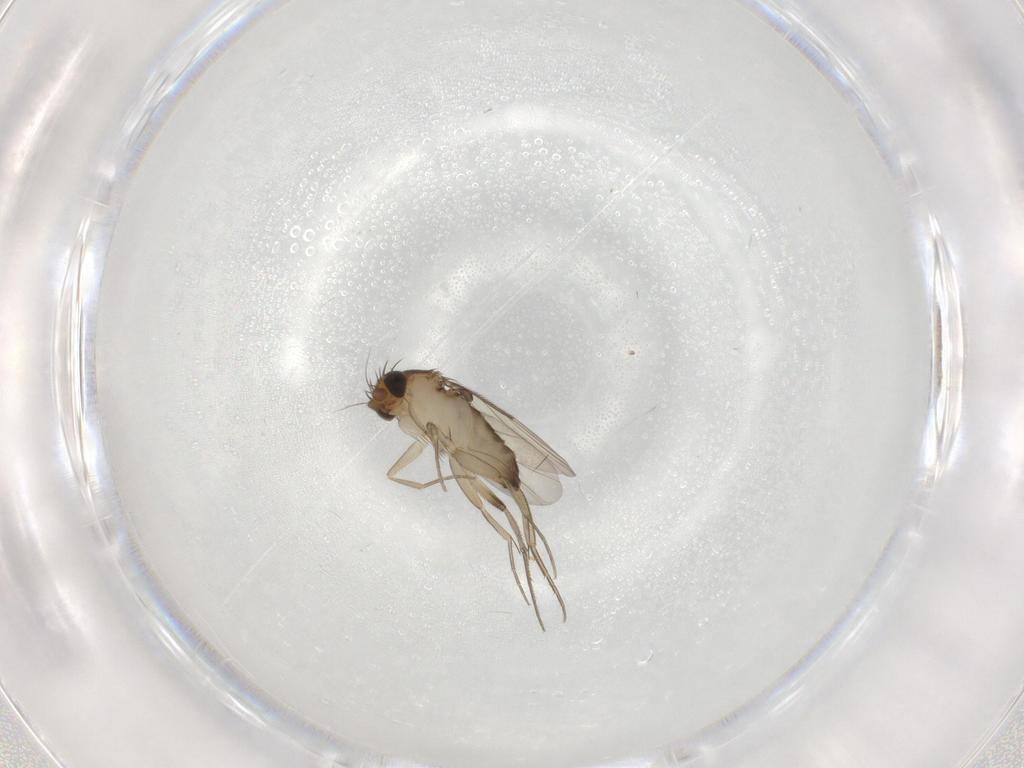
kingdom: Animalia
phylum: Arthropoda
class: Insecta
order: Diptera
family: Phoridae
